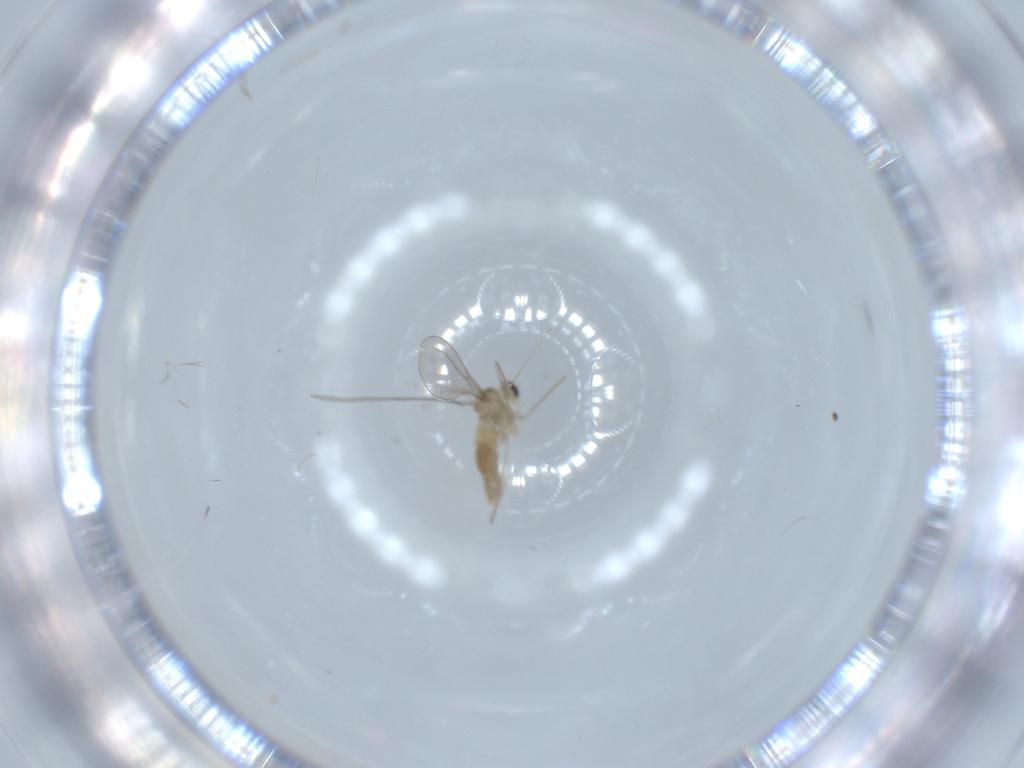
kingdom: Animalia
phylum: Arthropoda
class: Insecta
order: Diptera
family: Cecidomyiidae
